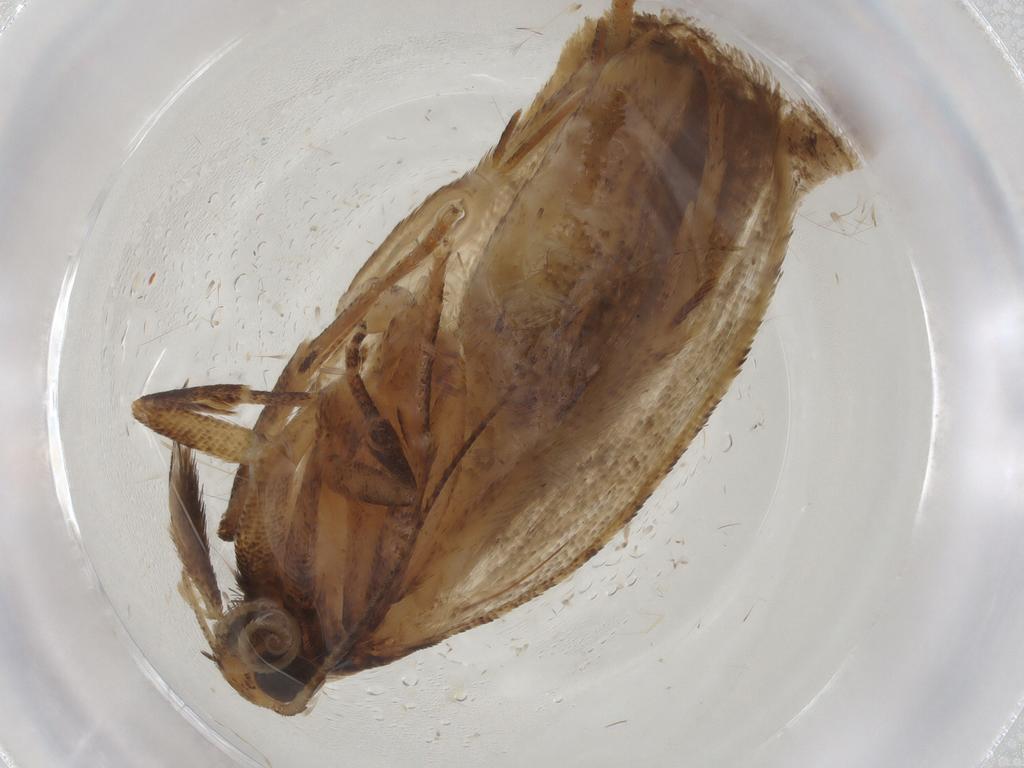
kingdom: Animalia
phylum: Arthropoda
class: Insecta
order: Lepidoptera
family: Gelechiidae
